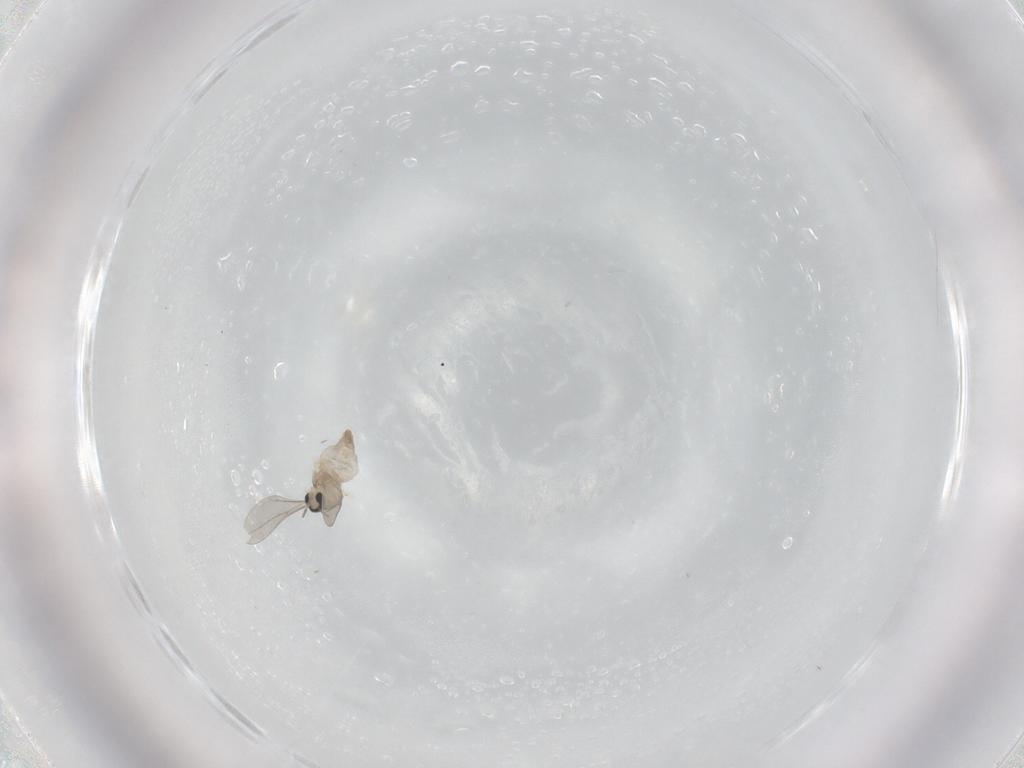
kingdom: Animalia
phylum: Arthropoda
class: Insecta
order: Diptera
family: Cecidomyiidae
